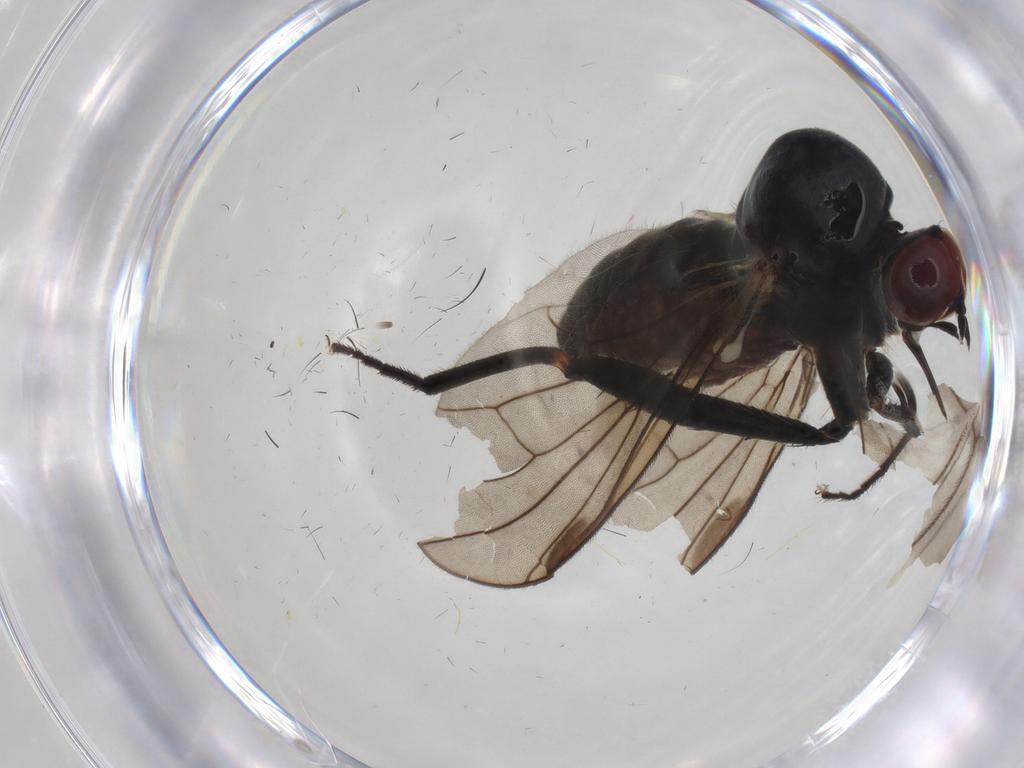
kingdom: Animalia
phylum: Arthropoda
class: Insecta
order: Diptera
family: Hybotidae
